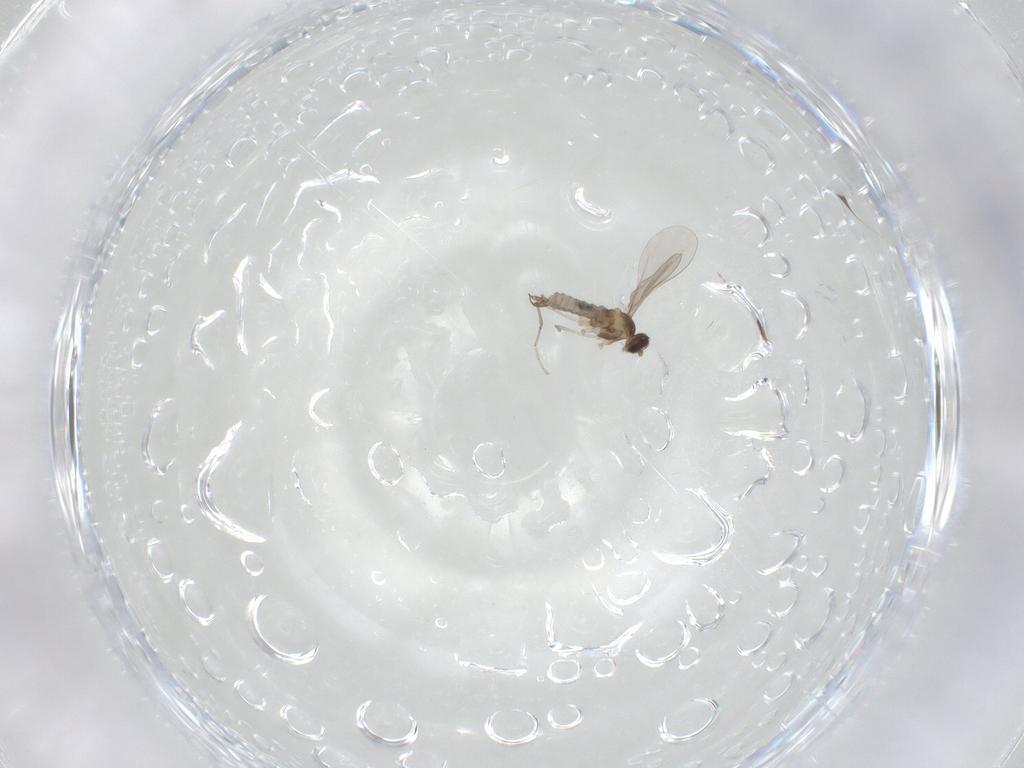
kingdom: Animalia
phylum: Arthropoda
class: Insecta
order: Diptera
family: Cecidomyiidae
